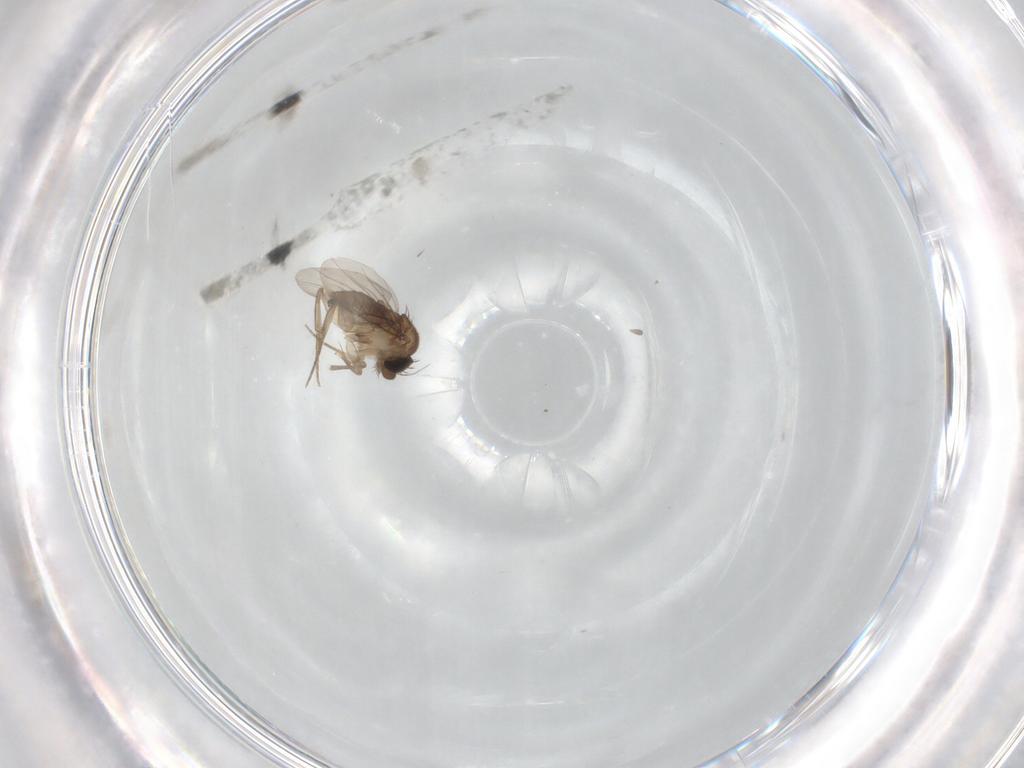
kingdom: Animalia
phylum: Arthropoda
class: Insecta
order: Diptera
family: Phoridae
